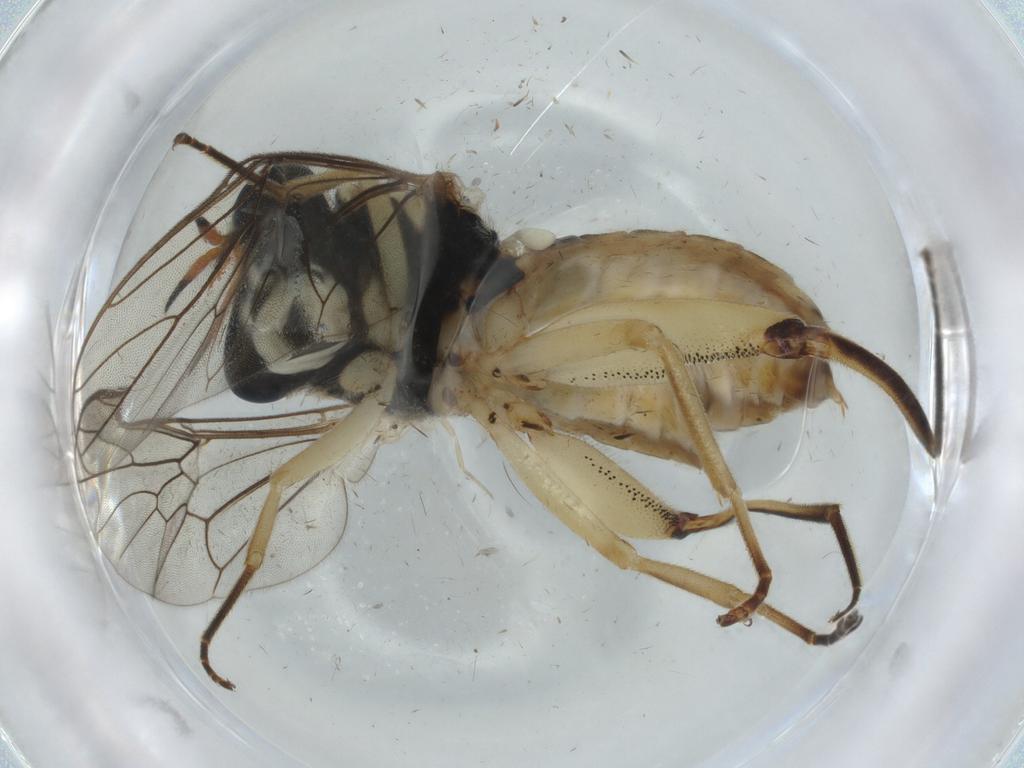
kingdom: Animalia
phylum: Arthropoda
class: Insecta
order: Diptera
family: Cecidomyiidae
